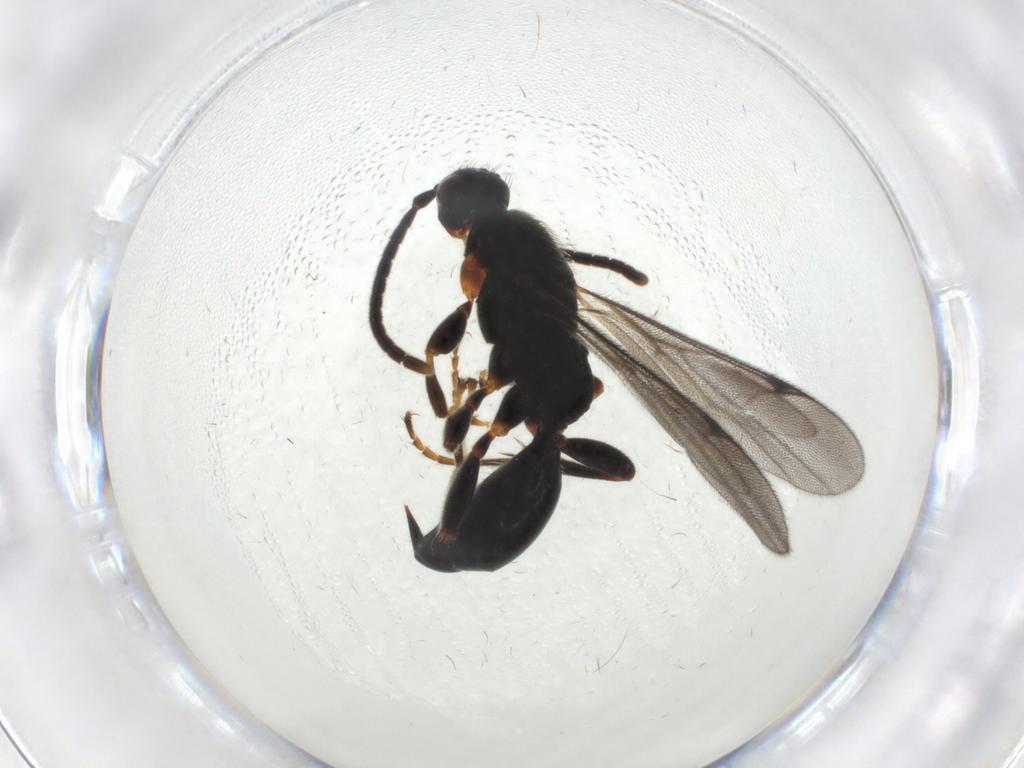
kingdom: Animalia
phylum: Arthropoda
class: Insecta
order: Hymenoptera
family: Proctotrupidae
